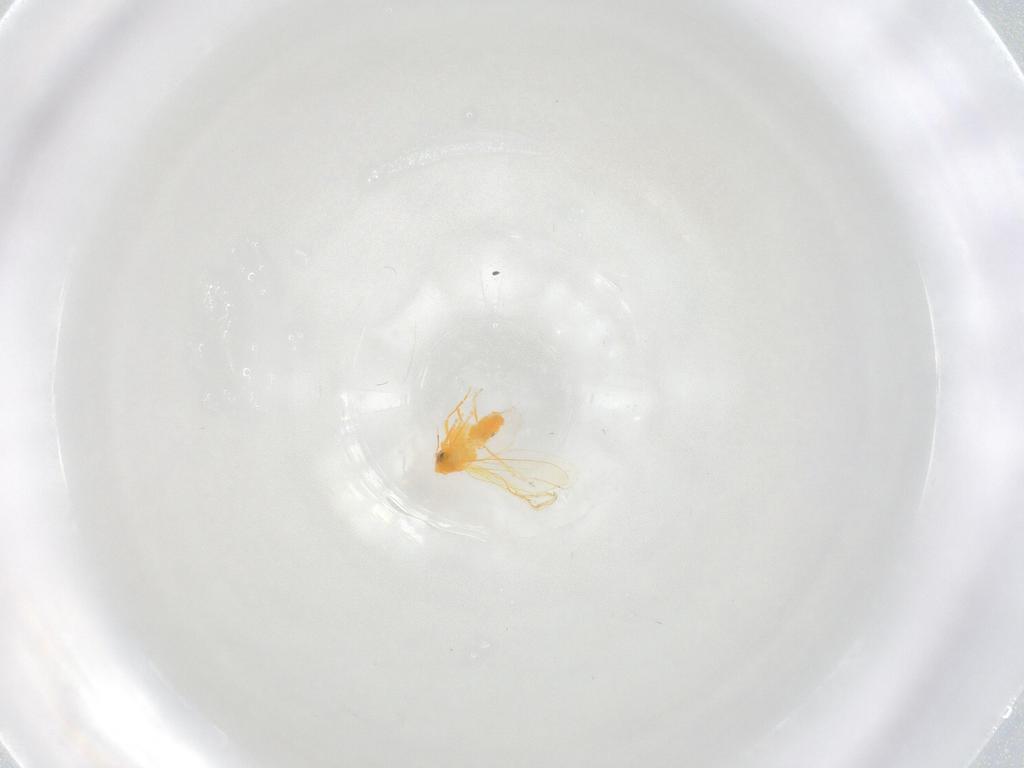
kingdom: Animalia
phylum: Arthropoda
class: Insecta
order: Hemiptera
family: Aleyrodidae
